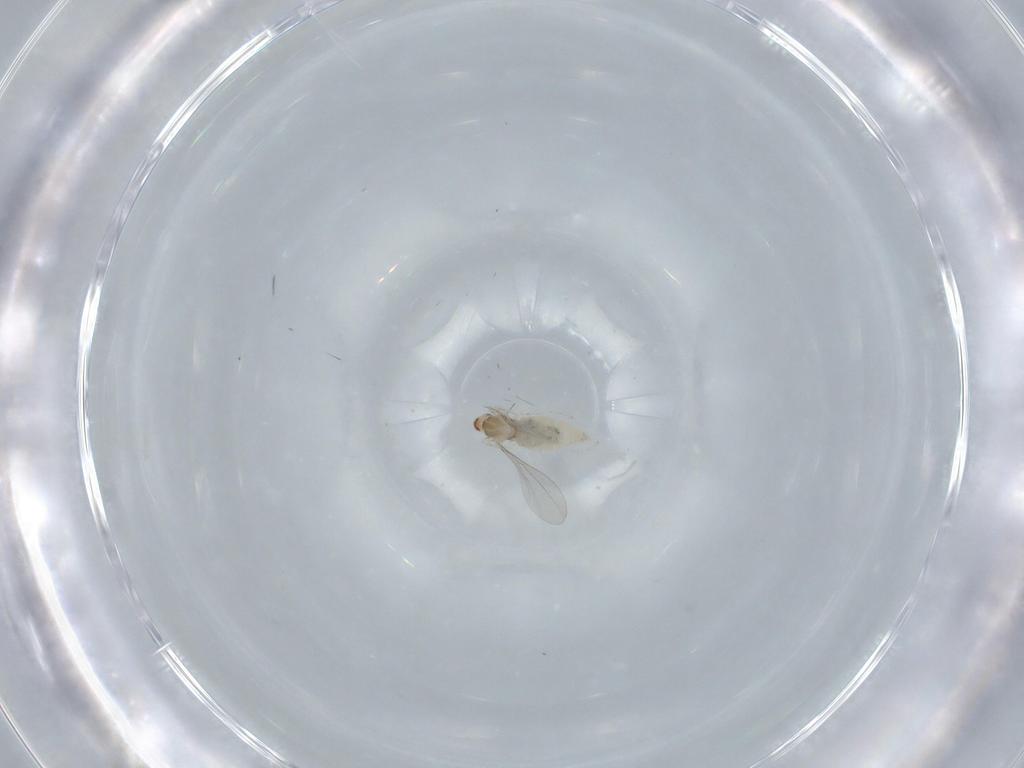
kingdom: Animalia
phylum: Arthropoda
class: Insecta
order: Diptera
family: Cecidomyiidae
